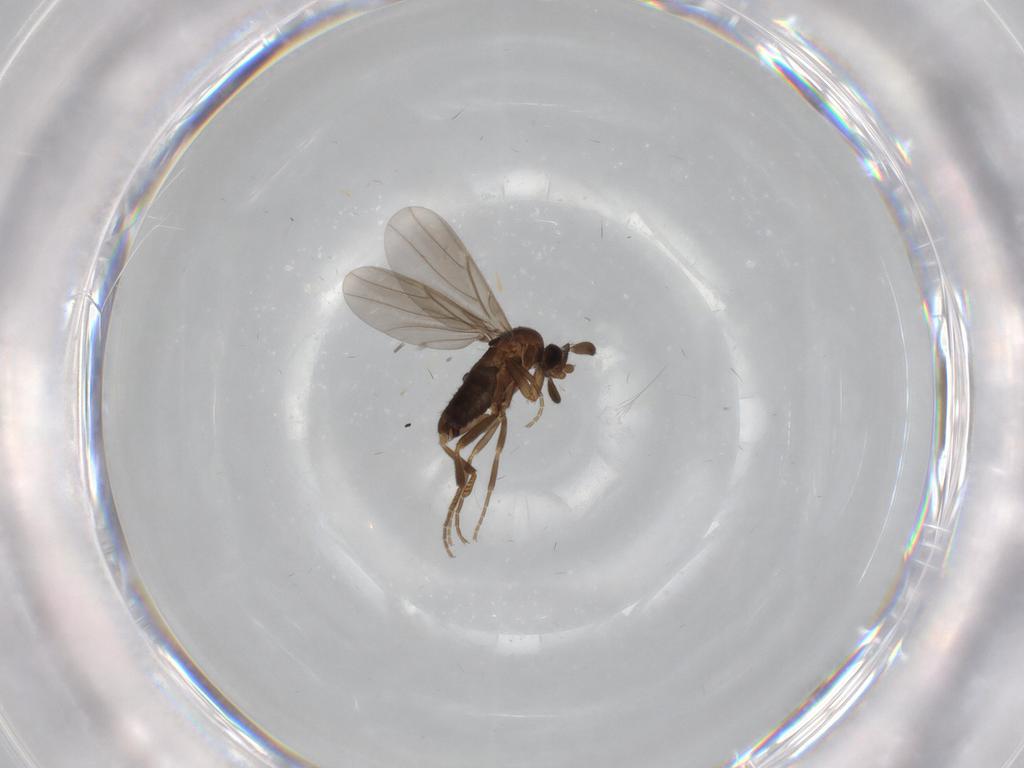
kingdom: Animalia
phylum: Arthropoda
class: Insecta
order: Diptera
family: Phoridae
